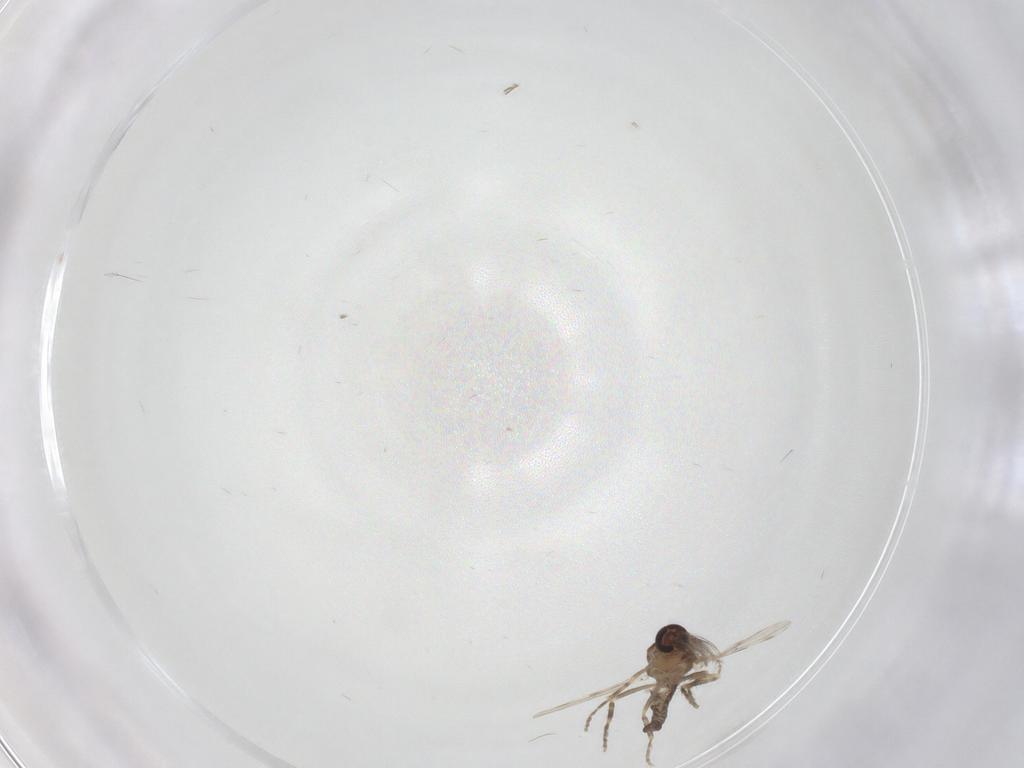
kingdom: Animalia
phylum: Arthropoda
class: Insecta
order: Diptera
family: Ceratopogonidae
